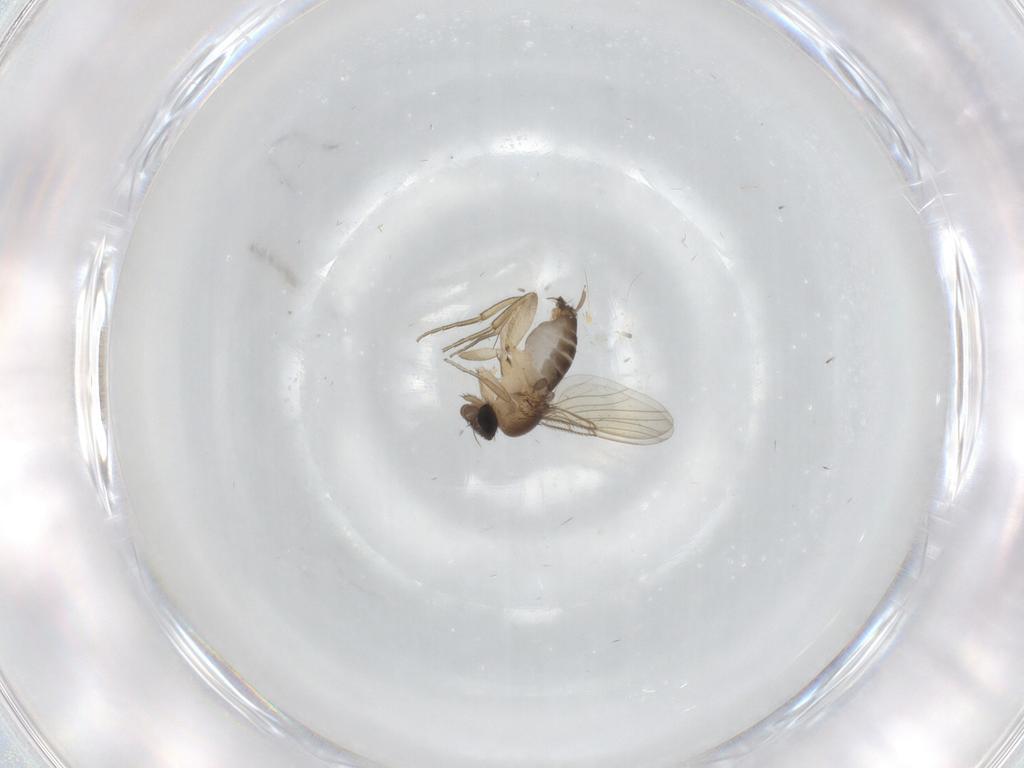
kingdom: Animalia
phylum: Arthropoda
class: Insecta
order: Diptera
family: Phoridae
